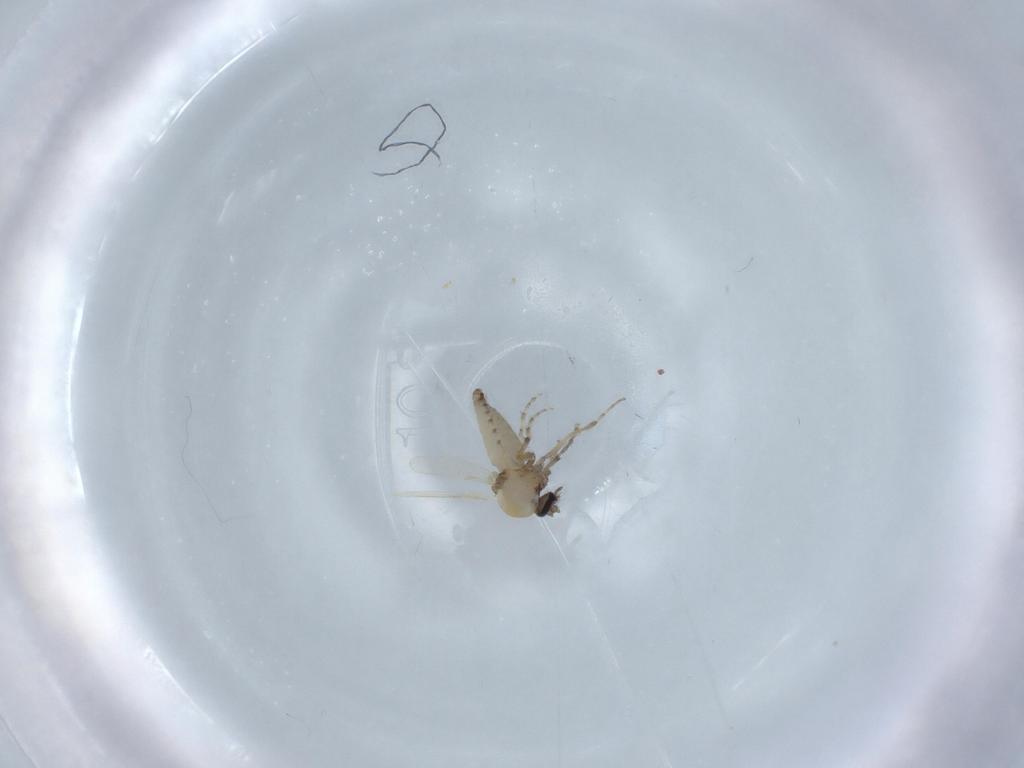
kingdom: Animalia
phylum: Arthropoda
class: Insecta
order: Diptera
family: Ceratopogonidae
